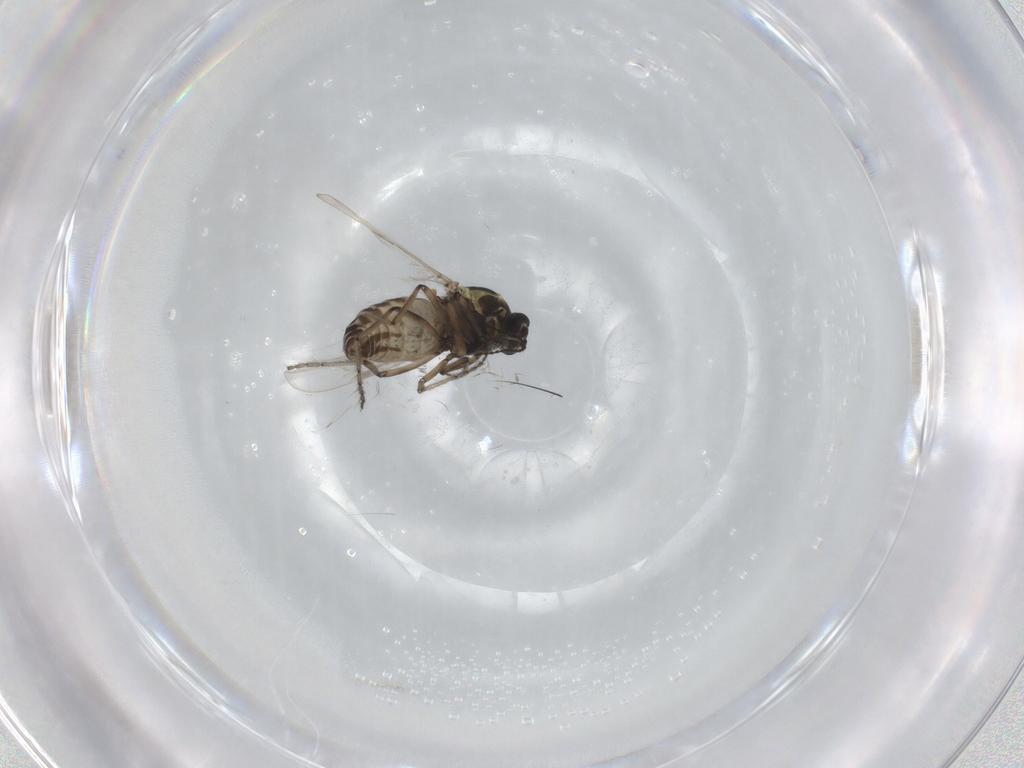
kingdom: Animalia
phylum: Arthropoda
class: Insecta
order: Diptera
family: Chironomidae
